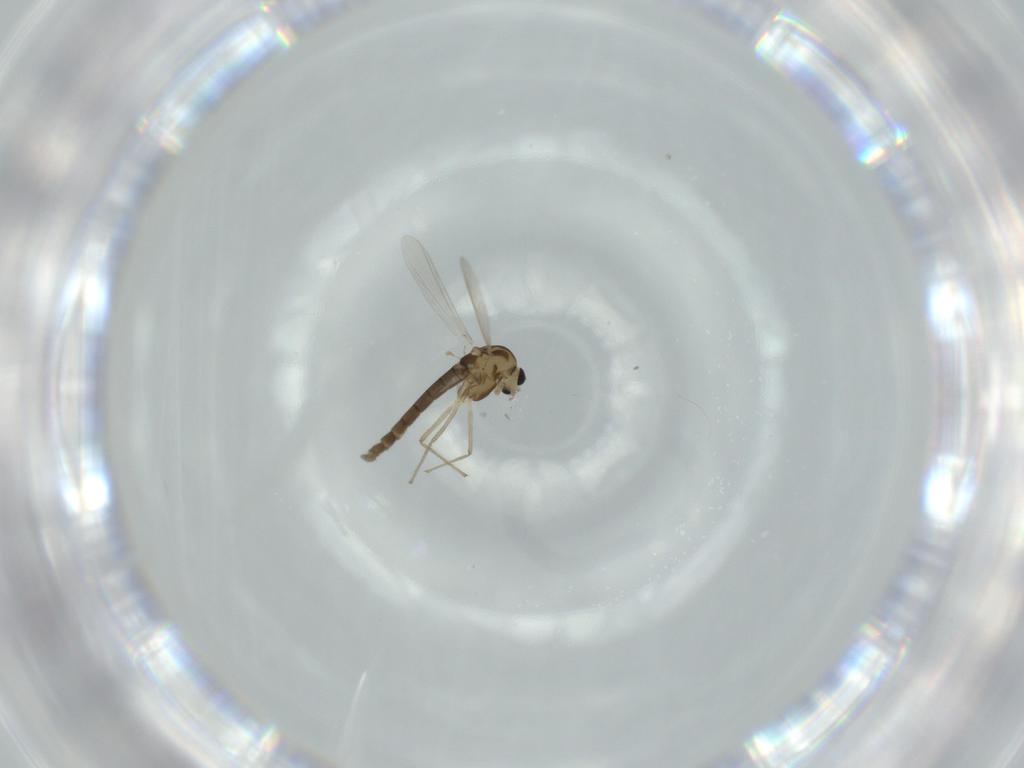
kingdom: Animalia
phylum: Arthropoda
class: Insecta
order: Diptera
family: Chironomidae
